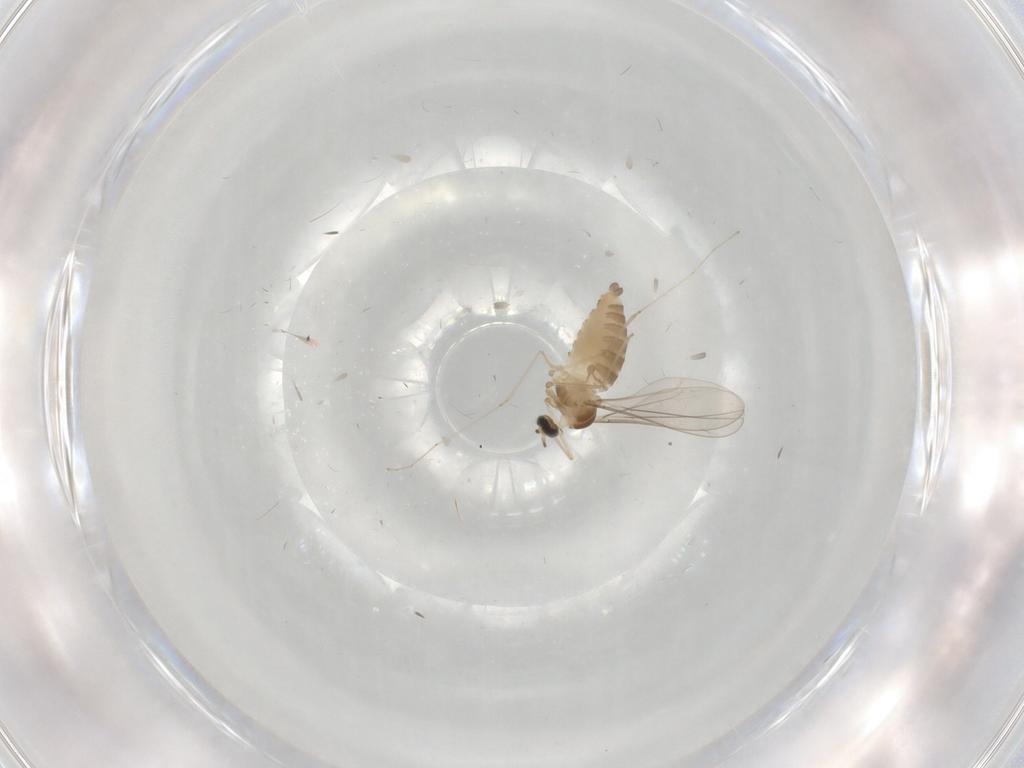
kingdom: Animalia
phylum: Arthropoda
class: Insecta
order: Diptera
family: Cecidomyiidae
